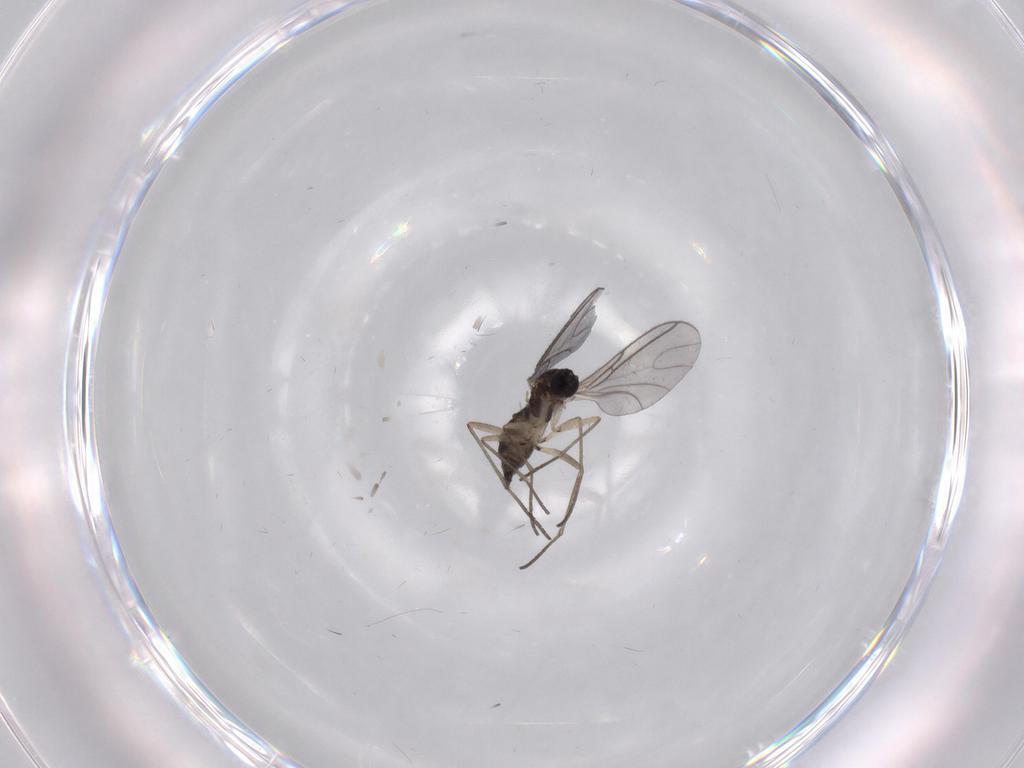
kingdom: Animalia
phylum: Arthropoda
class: Insecta
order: Diptera
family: Sciaridae
